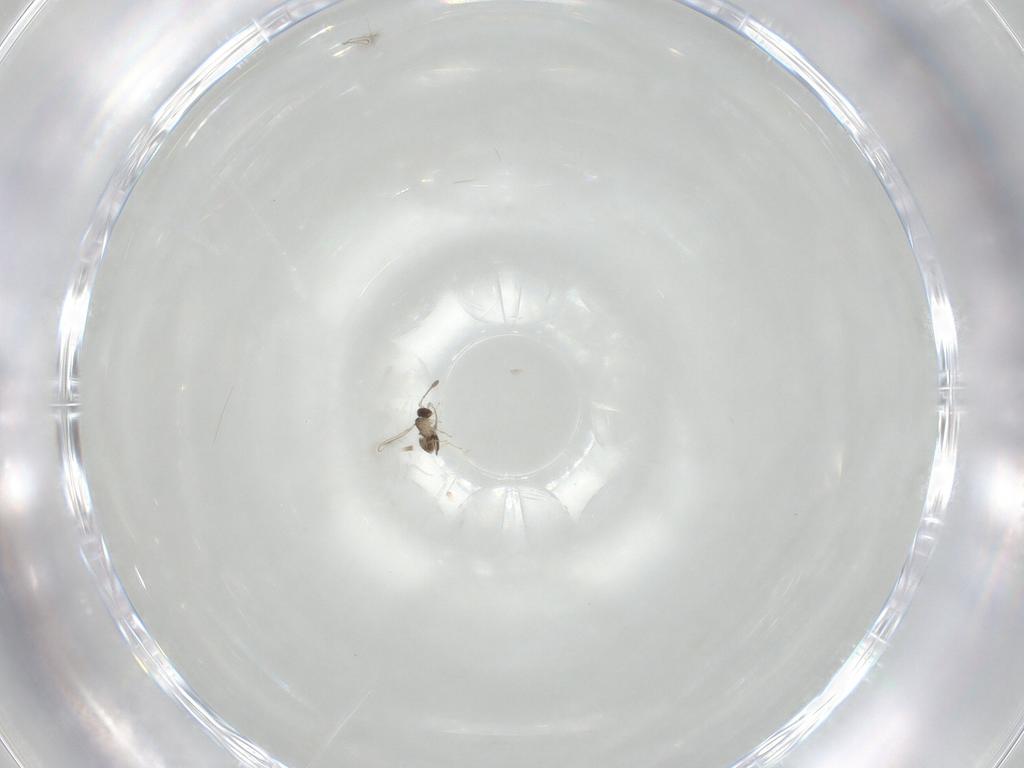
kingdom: Animalia
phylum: Arthropoda
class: Insecta
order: Hymenoptera
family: Mymaridae
